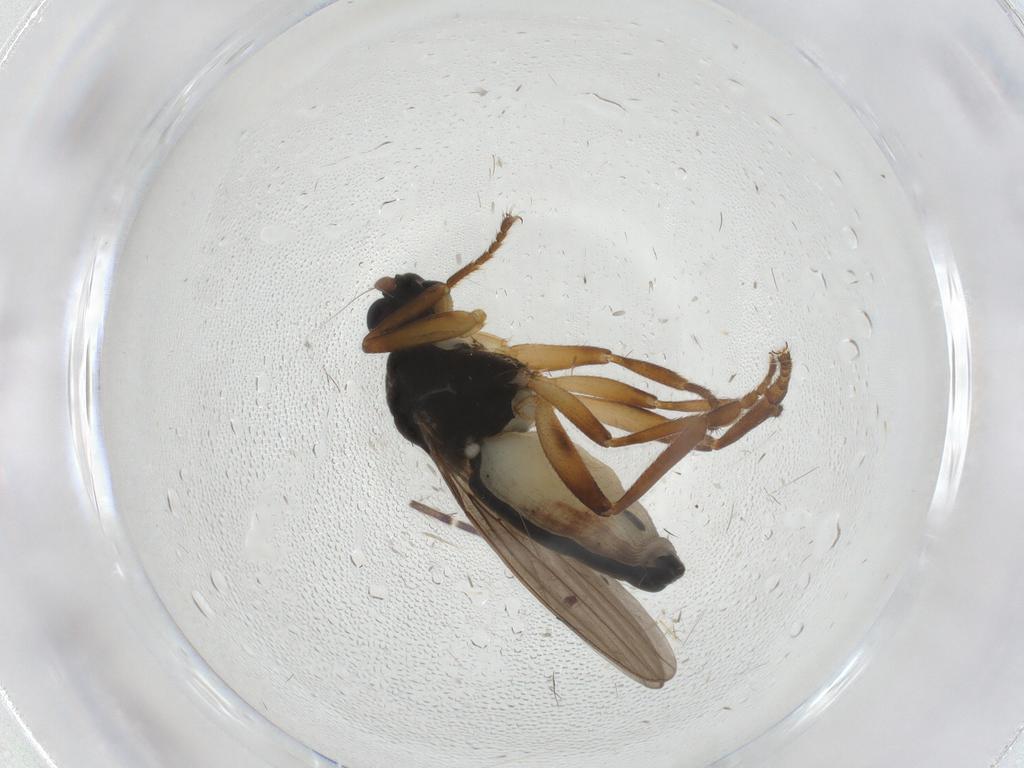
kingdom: Animalia
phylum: Arthropoda
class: Insecta
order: Diptera
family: Sphaeroceridae
